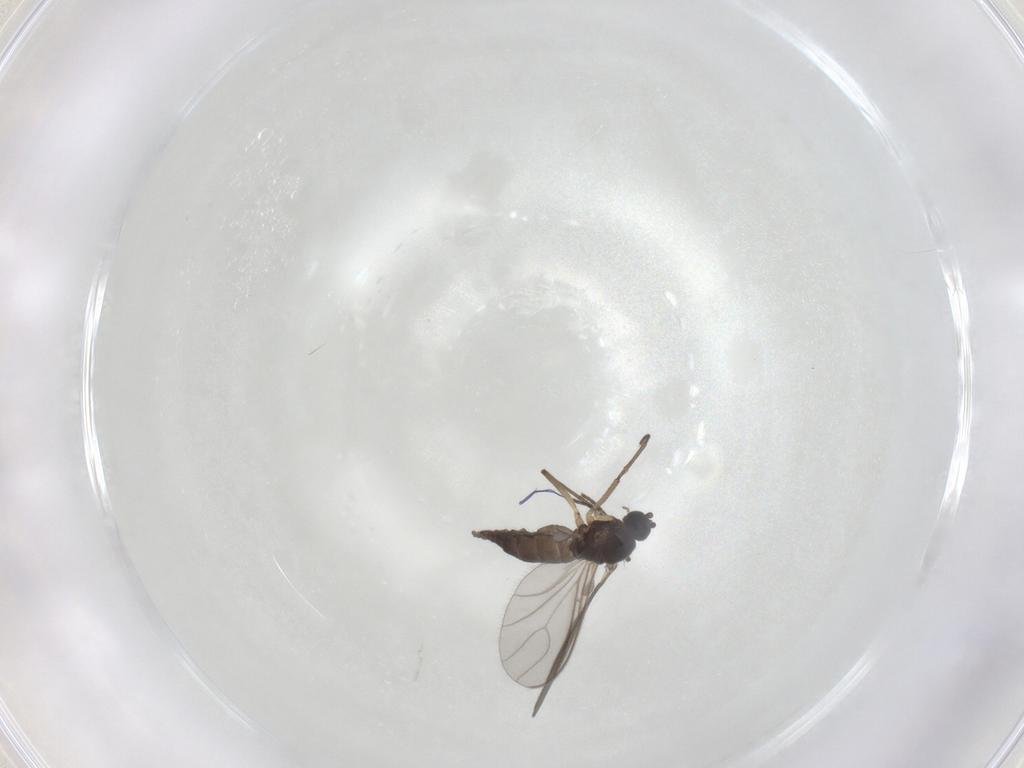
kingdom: Animalia
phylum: Arthropoda
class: Insecta
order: Diptera
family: Sciaridae
